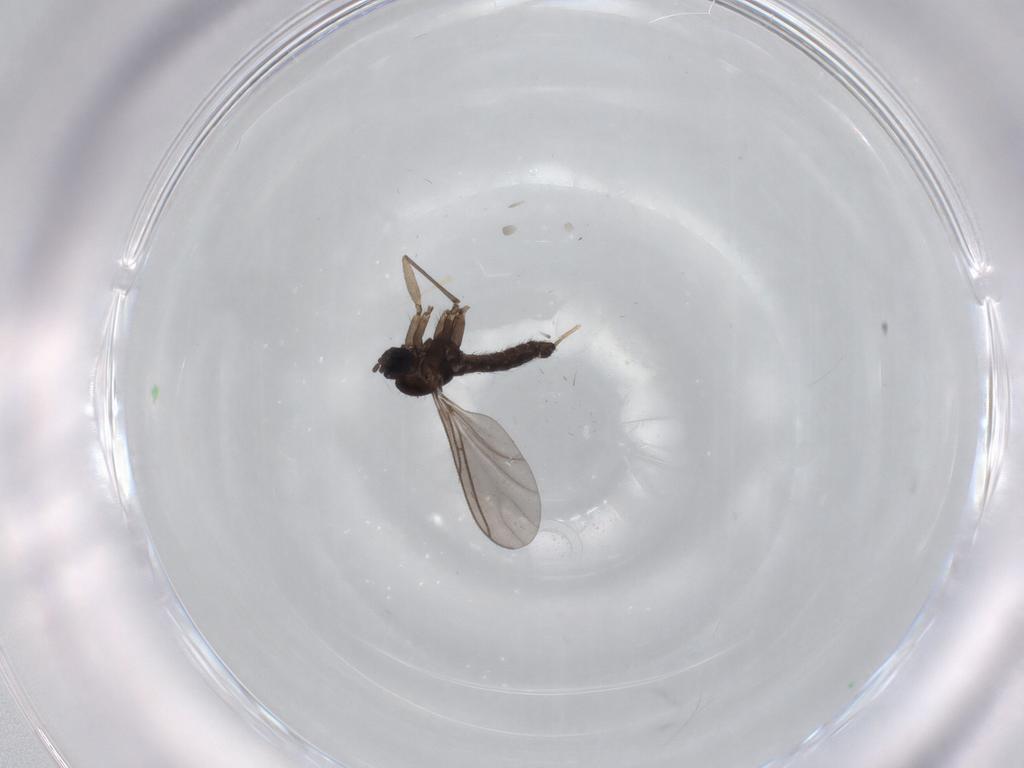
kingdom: Animalia
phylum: Arthropoda
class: Insecta
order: Diptera
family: Sciaridae
